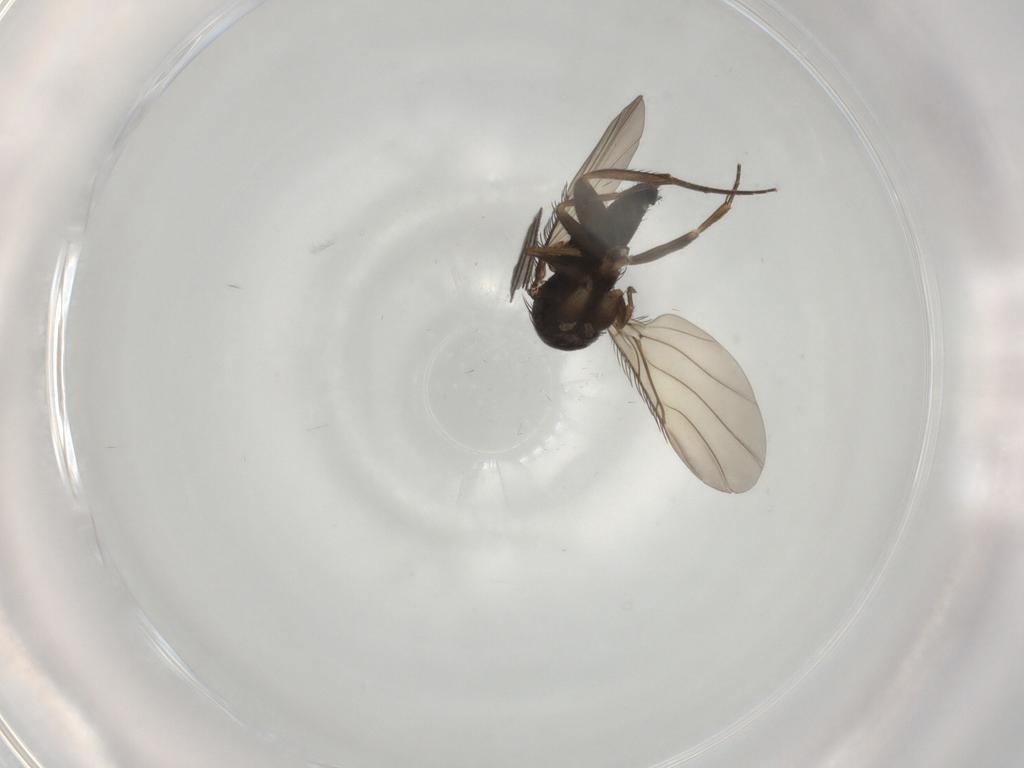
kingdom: Animalia
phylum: Arthropoda
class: Insecta
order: Diptera
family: Phoridae
